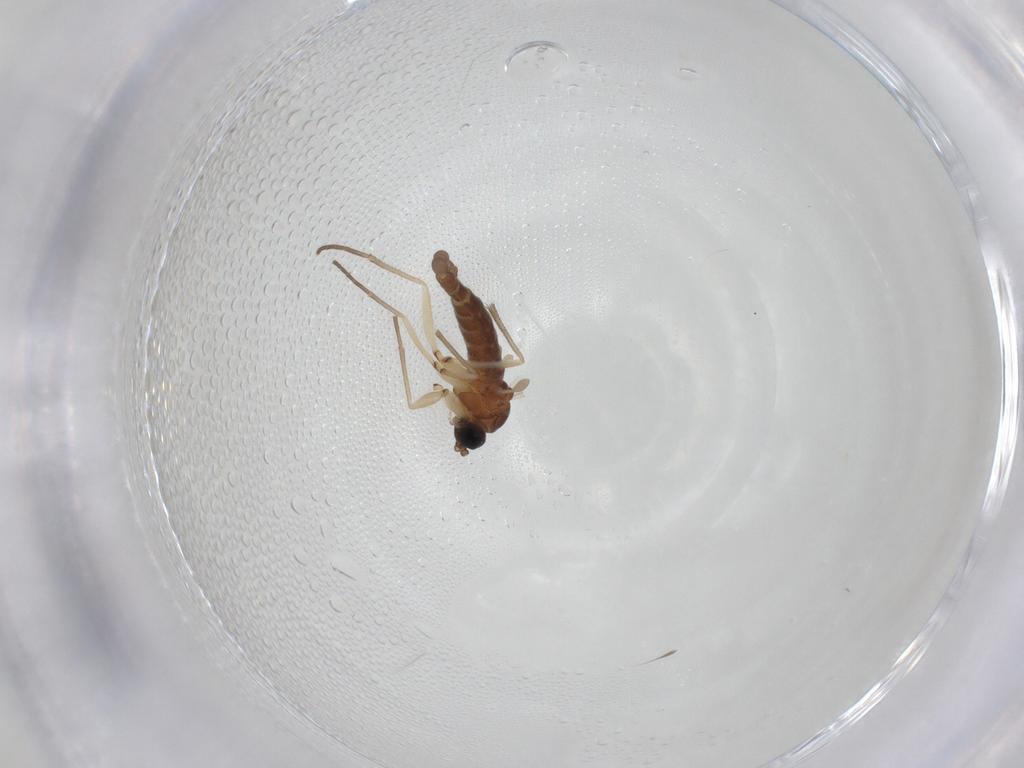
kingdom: Animalia
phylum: Arthropoda
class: Insecta
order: Diptera
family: Sciaridae
